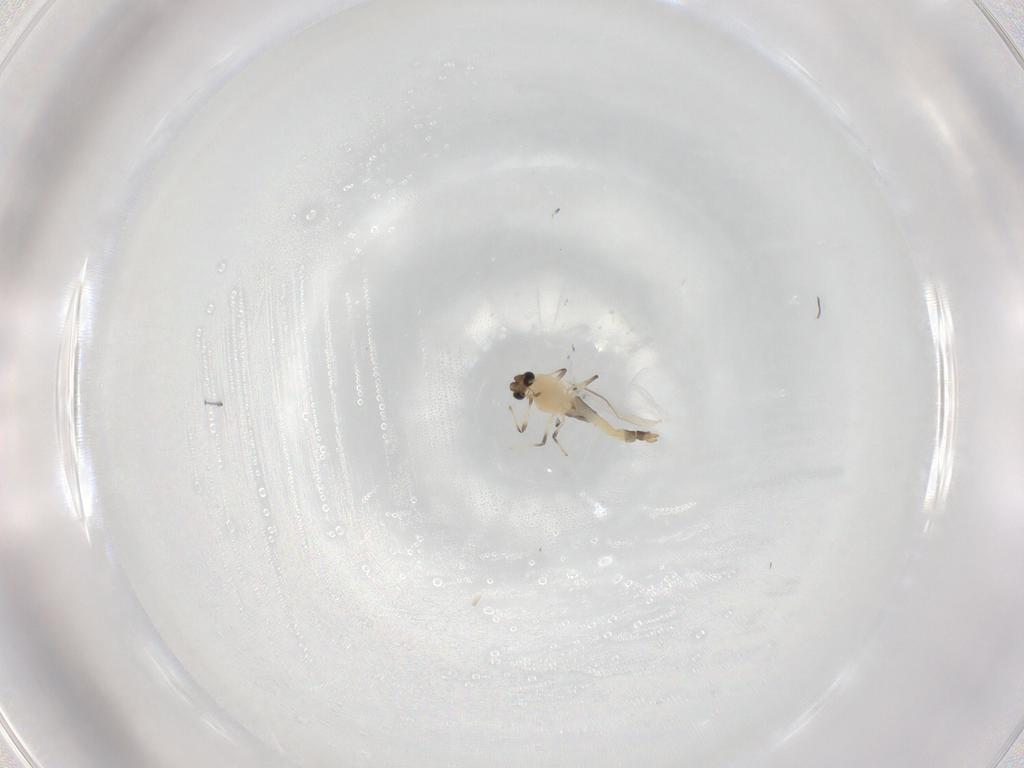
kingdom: Animalia
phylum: Arthropoda
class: Insecta
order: Diptera
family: Chironomidae
